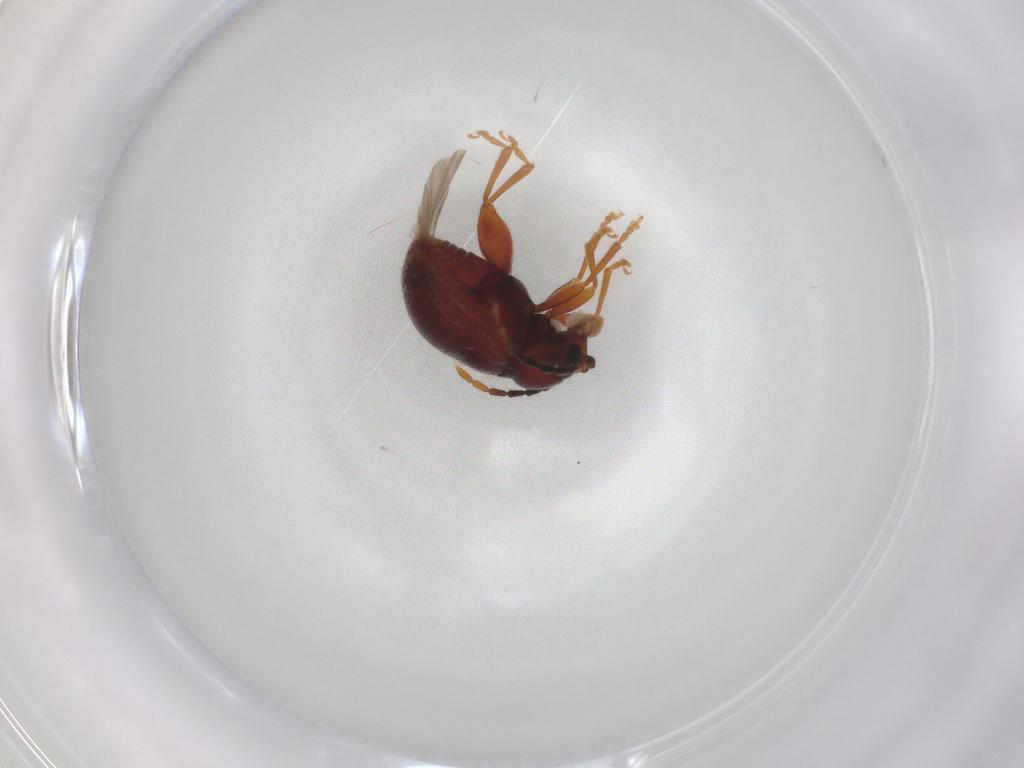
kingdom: Animalia
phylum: Arthropoda
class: Insecta
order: Coleoptera
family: Chrysomelidae
